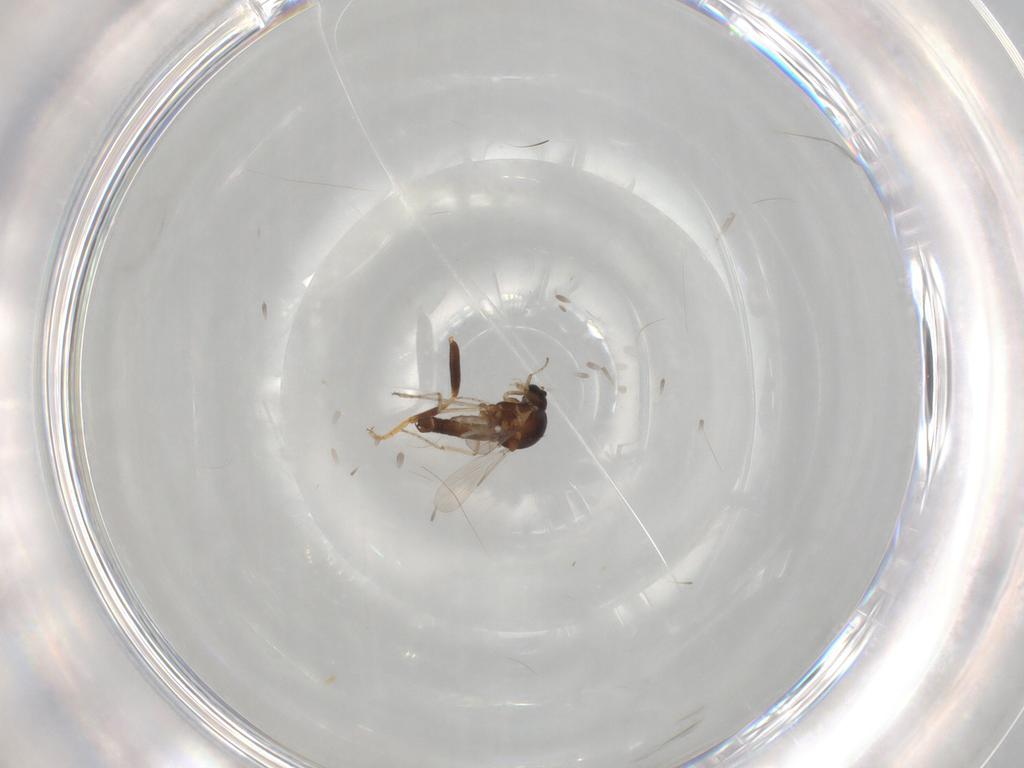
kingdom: Animalia
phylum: Arthropoda
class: Insecta
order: Diptera
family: Ceratopogonidae
